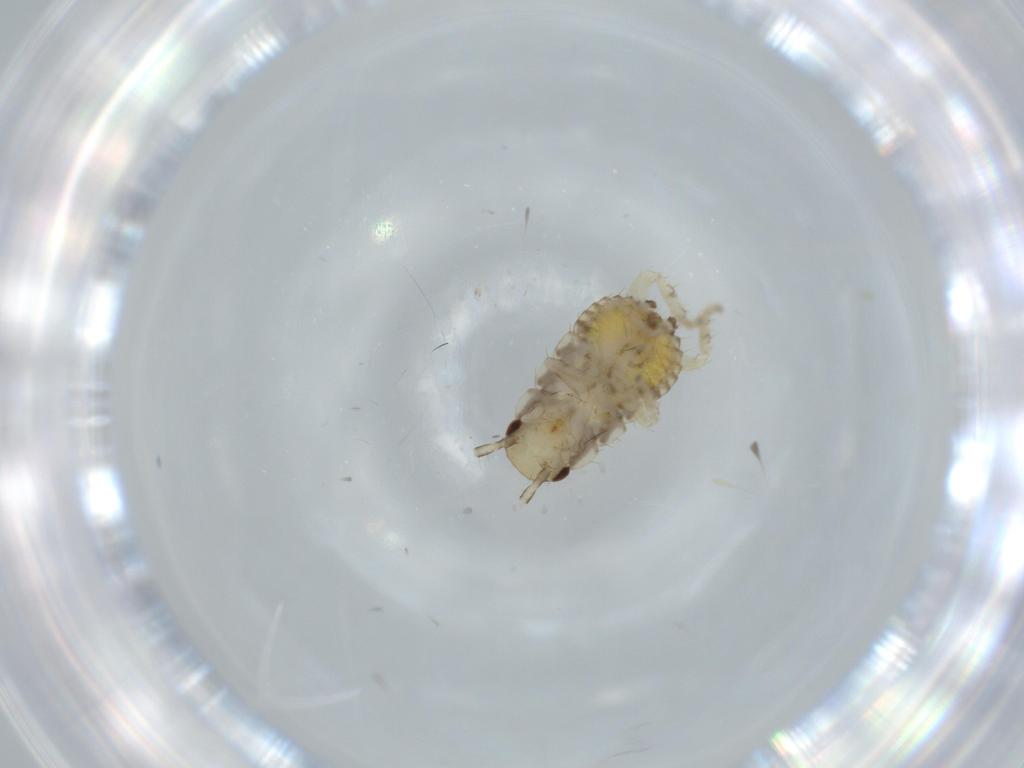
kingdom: Animalia
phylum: Arthropoda
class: Insecta
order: Blattodea
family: Ectobiidae
